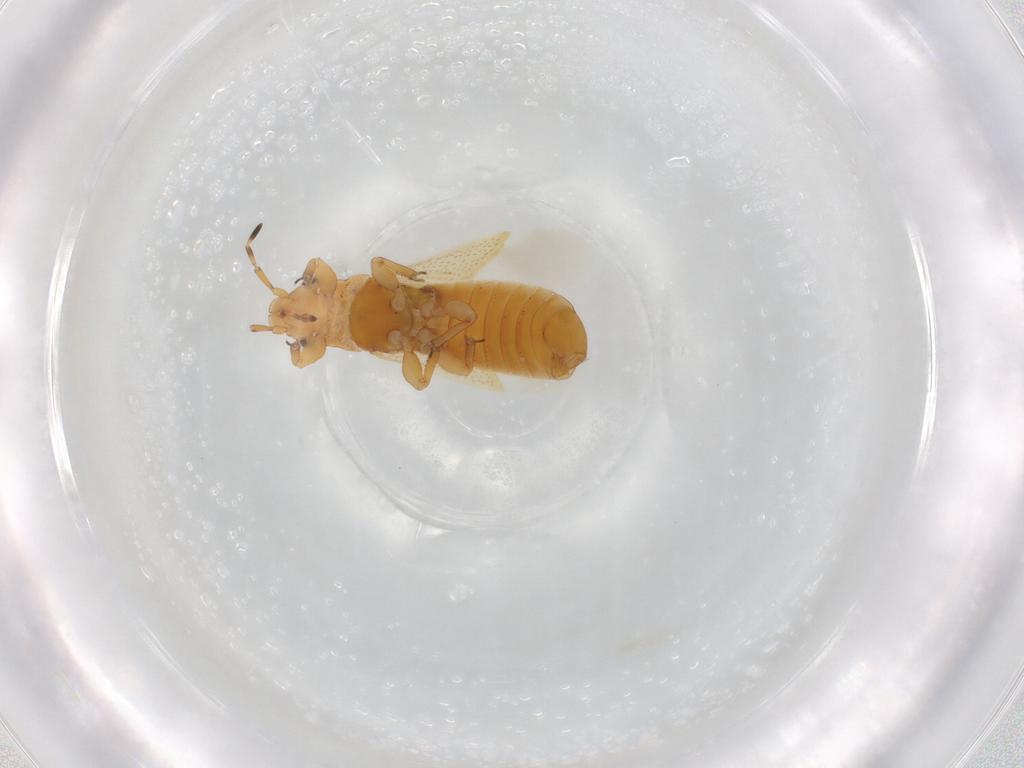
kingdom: Animalia
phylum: Arthropoda
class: Insecta
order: Hemiptera
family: Thaumastocoridae
